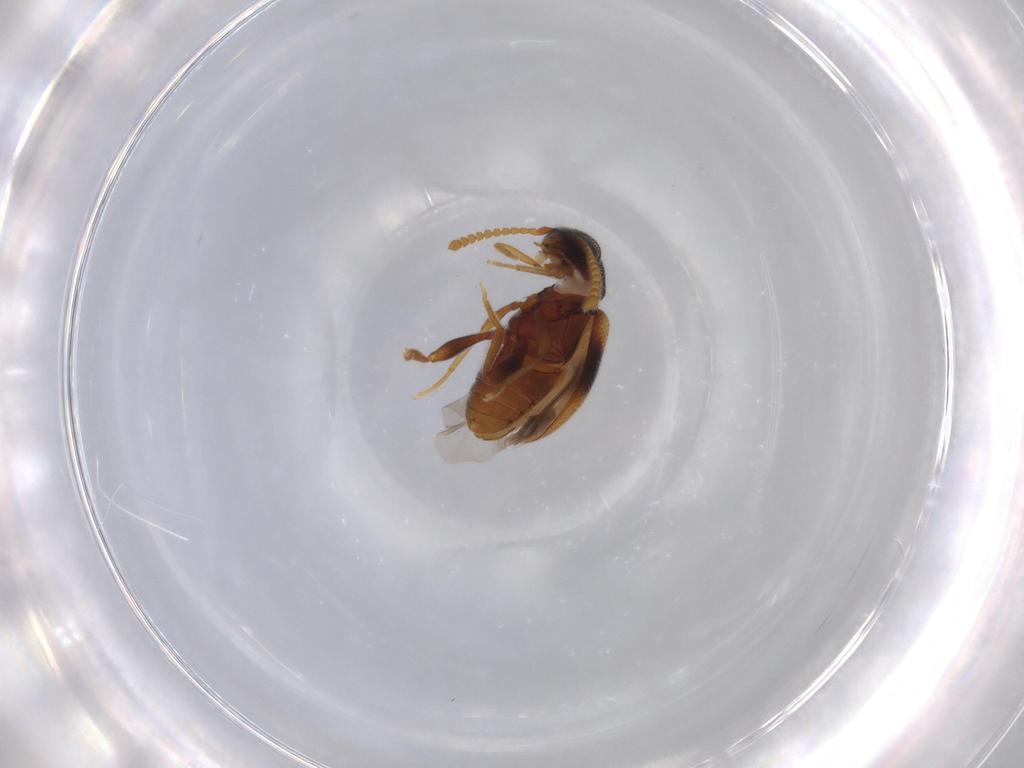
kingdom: Animalia
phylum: Arthropoda
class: Insecta
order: Coleoptera
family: Aderidae
